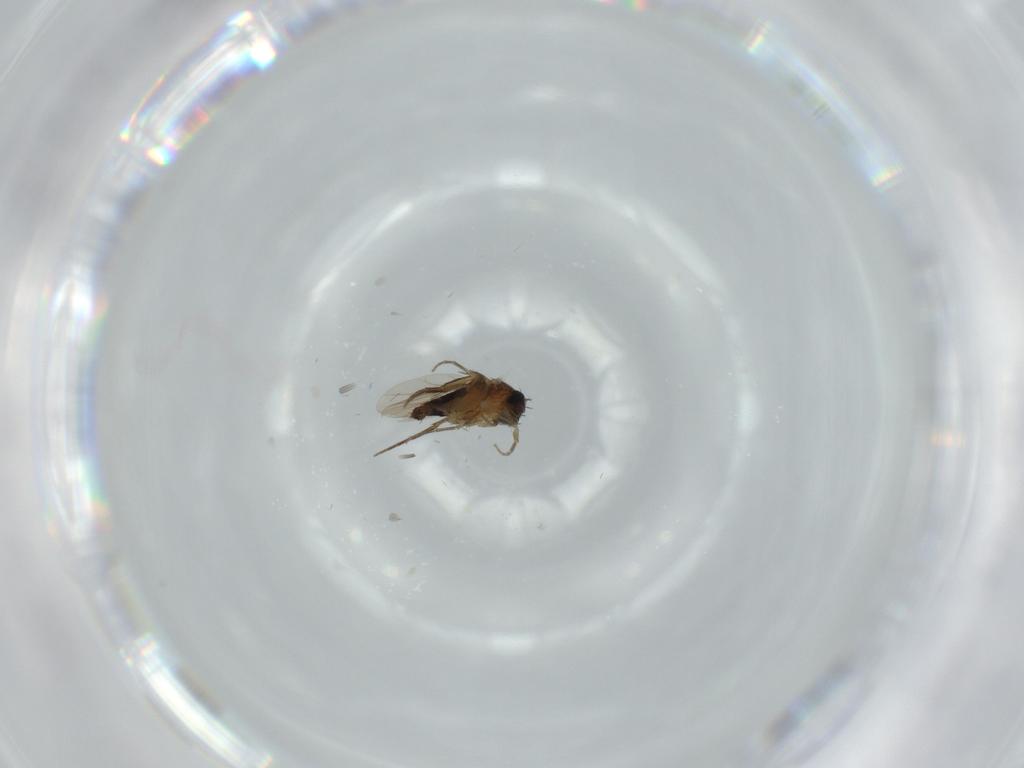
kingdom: Animalia
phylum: Arthropoda
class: Insecta
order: Diptera
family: Phoridae
